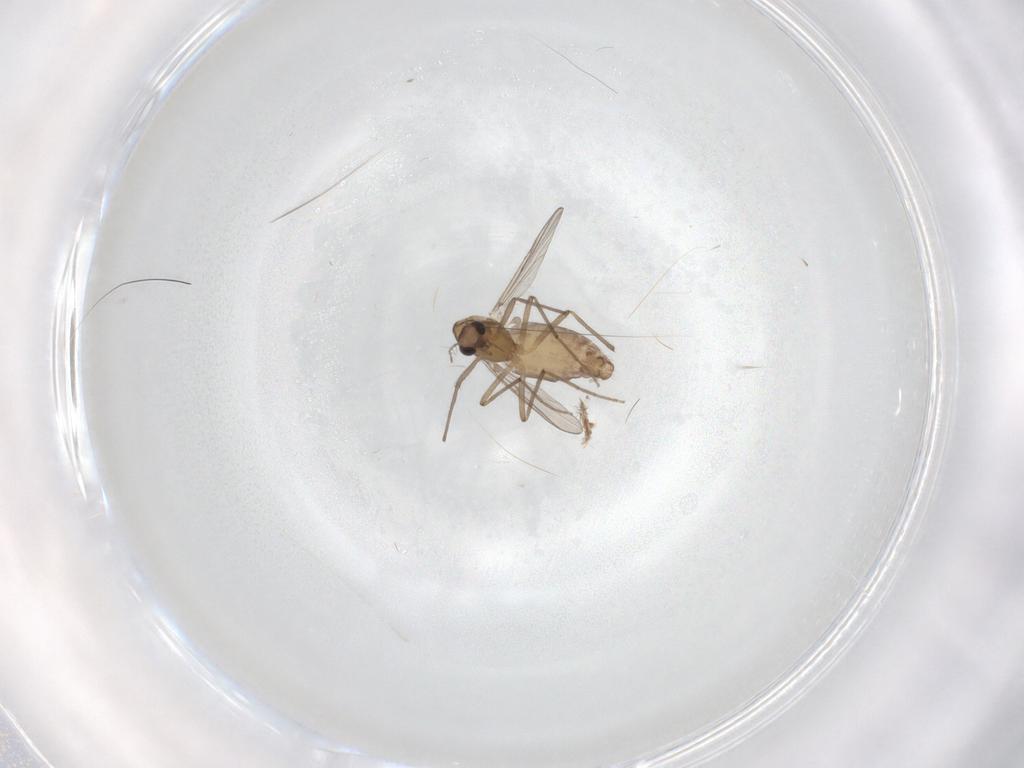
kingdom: Animalia
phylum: Arthropoda
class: Insecta
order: Diptera
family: Chironomidae
